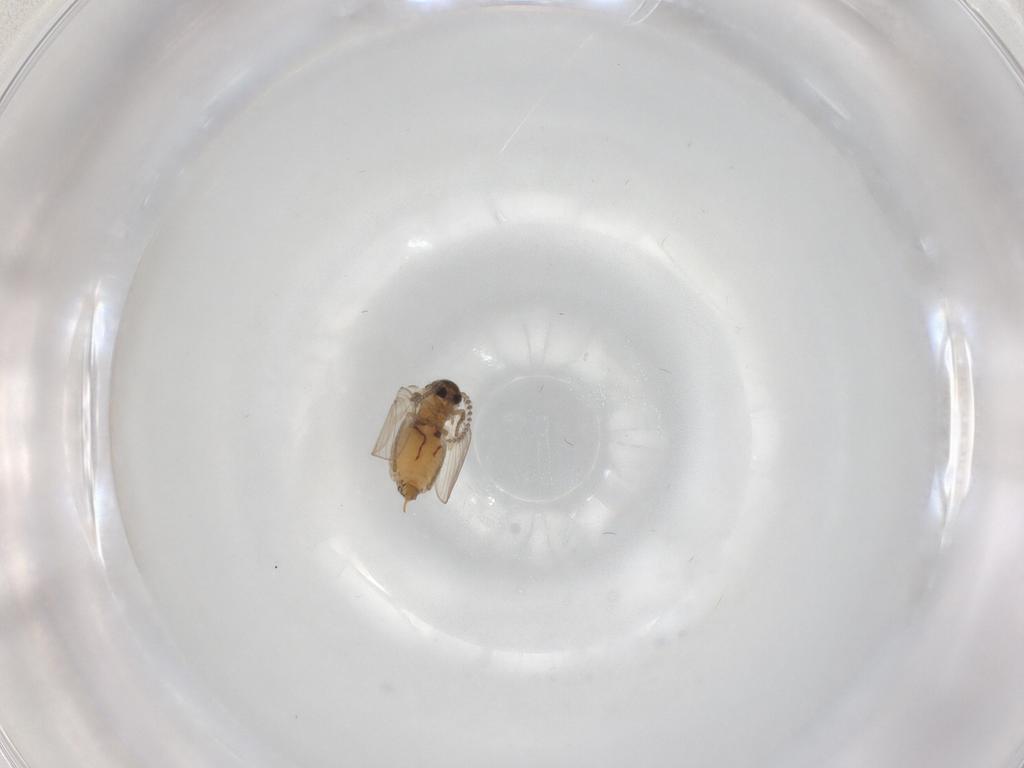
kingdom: Animalia
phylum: Arthropoda
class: Insecta
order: Diptera
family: Psychodidae
